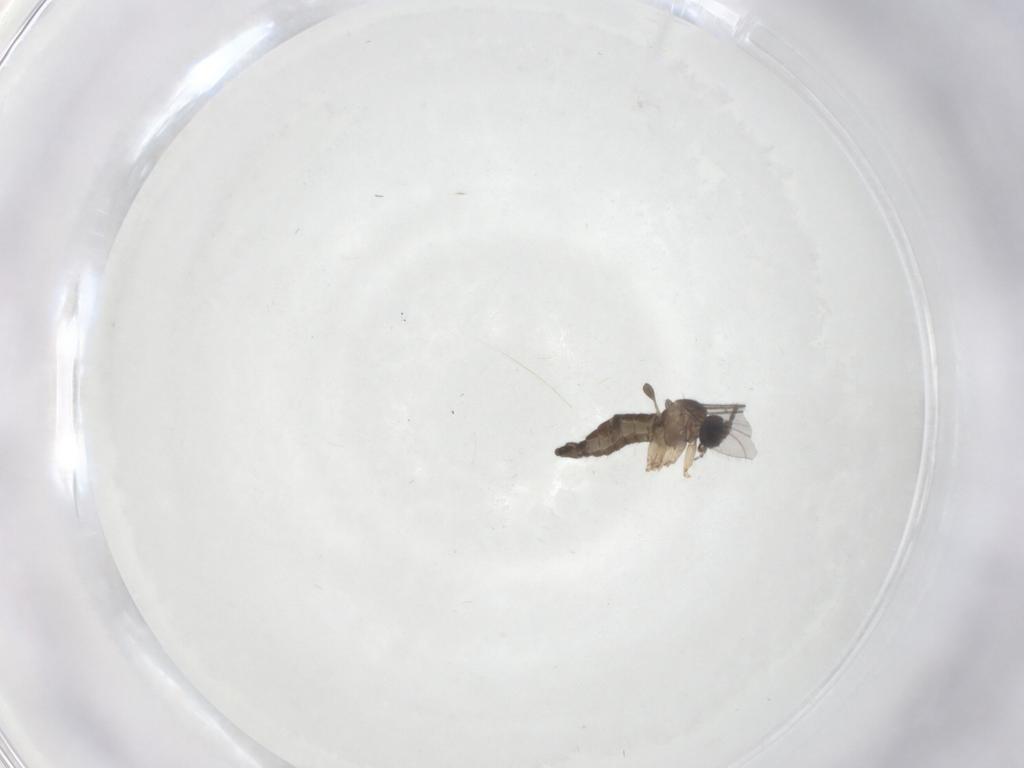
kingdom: Animalia
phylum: Arthropoda
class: Insecta
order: Diptera
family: Sciaridae
